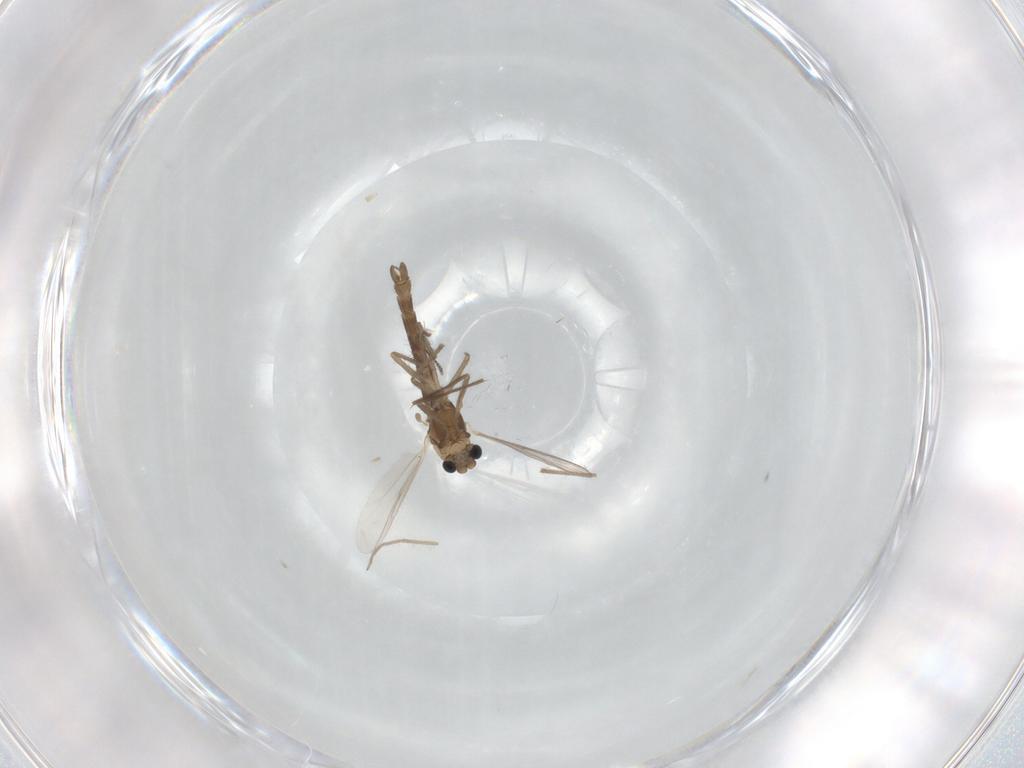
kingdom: Animalia
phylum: Arthropoda
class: Insecta
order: Diptera
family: Chironomidae
